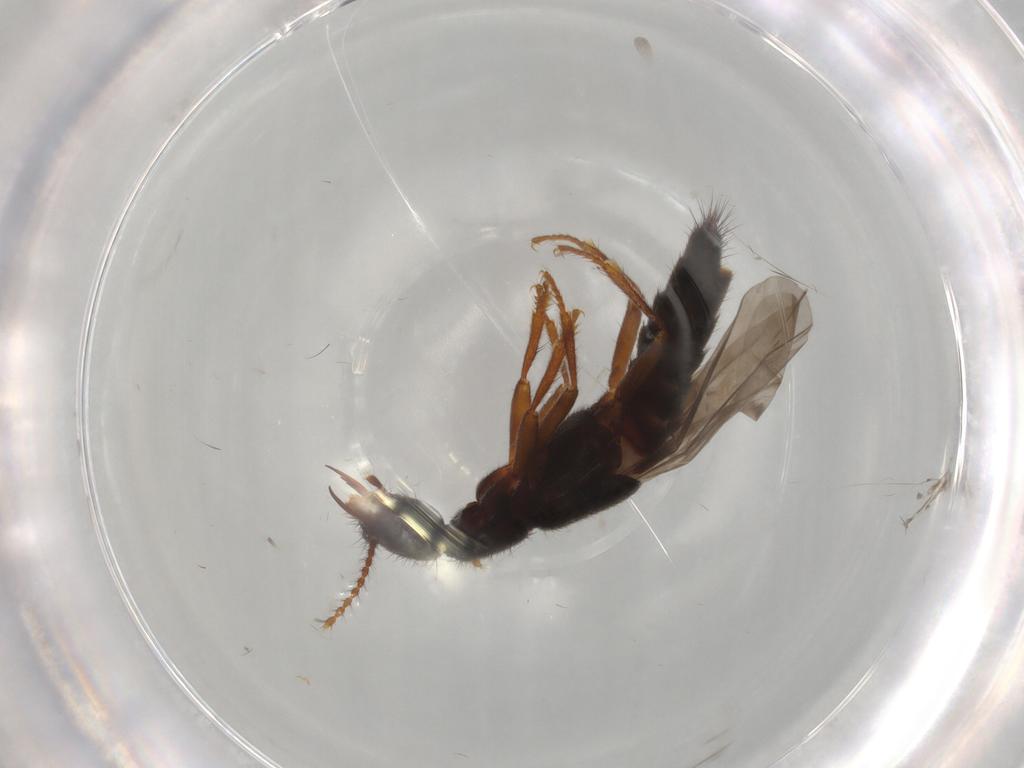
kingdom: Animalia
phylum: Arthropoda
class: Insecta
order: Coleoptera
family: Chrysomelidae
